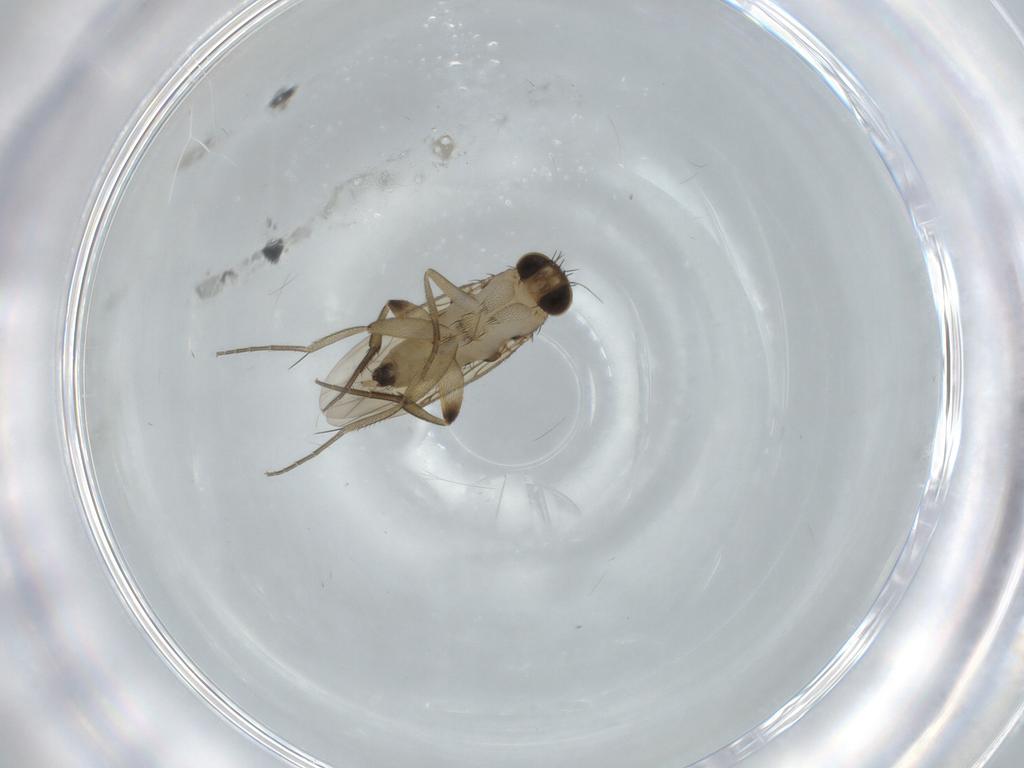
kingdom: Animalia
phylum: Arthropoda
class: Insecta
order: Diptera
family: Phoridae
